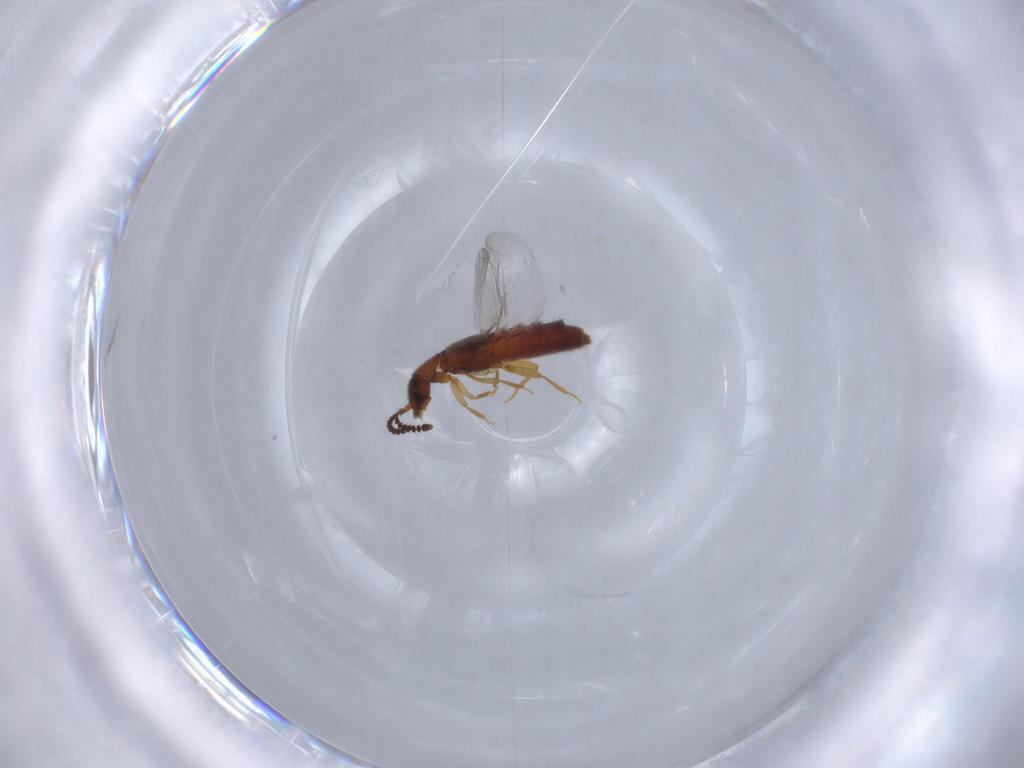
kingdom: Animalia
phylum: Arthropoda
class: Insecta
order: Coleoptera
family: Staphylinidae
